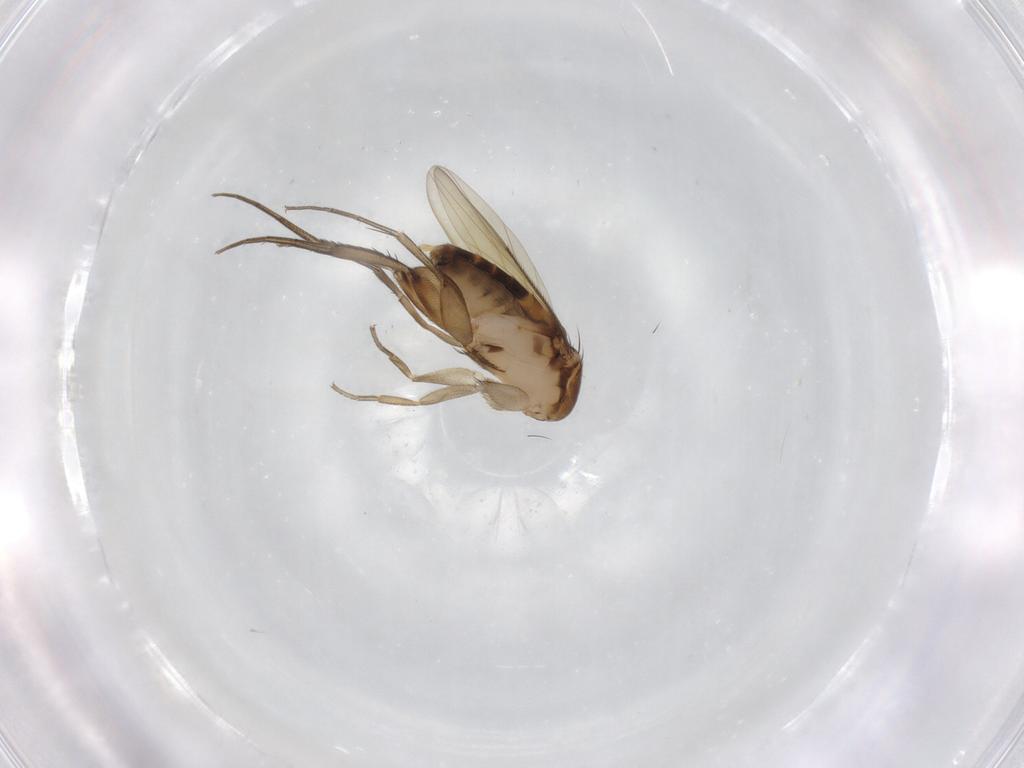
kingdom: Animalia
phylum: Arthropoda
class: Insecta
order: Diptera
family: Phoridae
